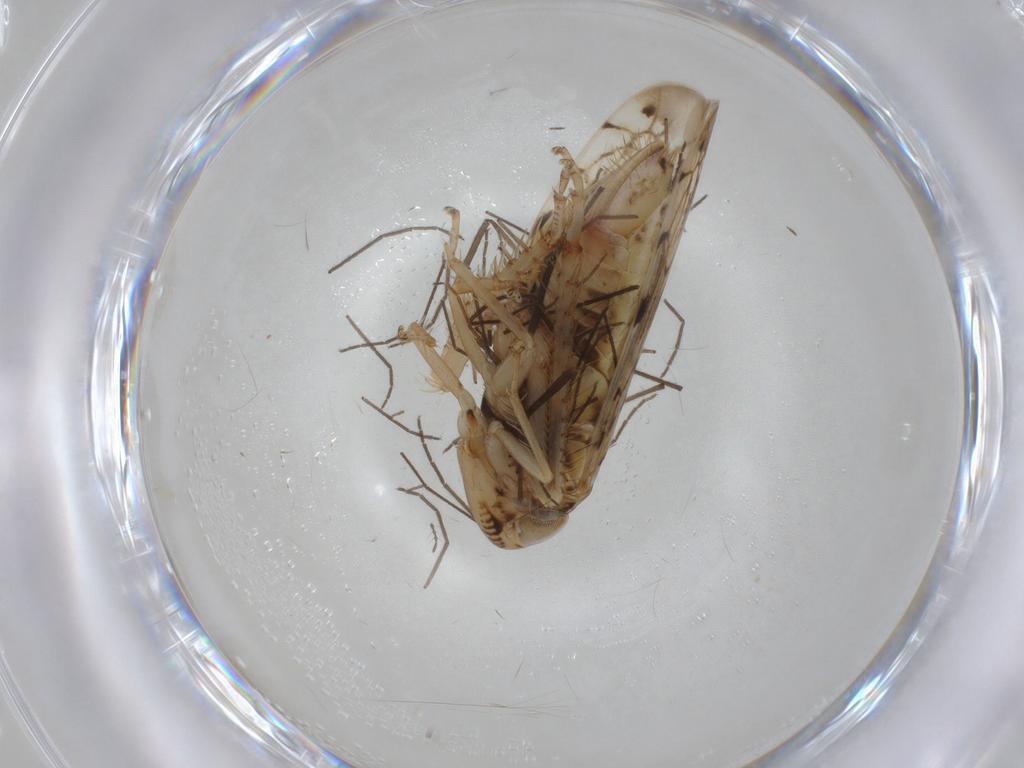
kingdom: Animalia
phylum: Arthropoda
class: Insecta
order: Hemiptera
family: Cicadellidae
